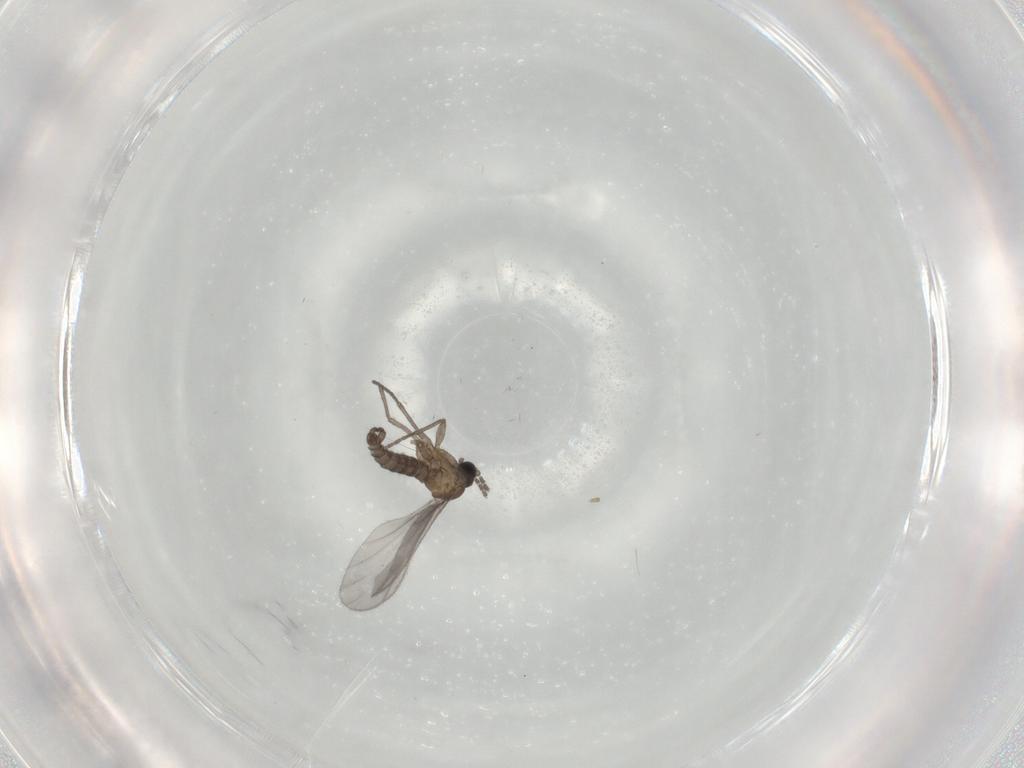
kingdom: Animalia
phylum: Arthropoda
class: Insecta
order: Diptera
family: Sciaridae
